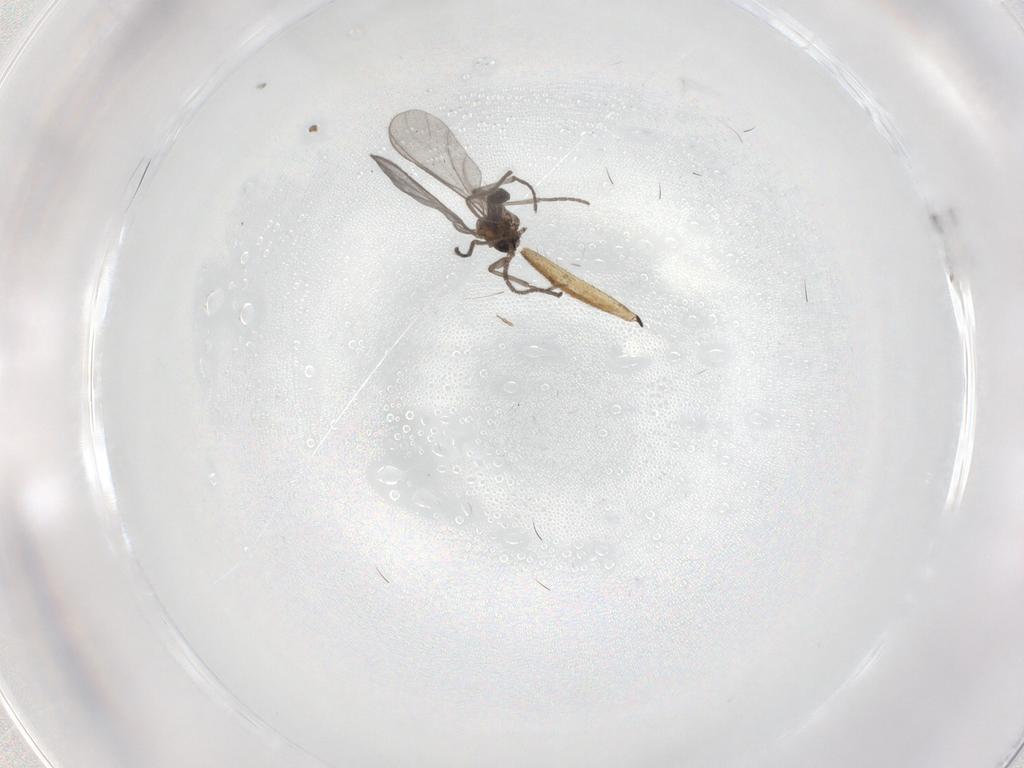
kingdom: Animalia
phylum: Arthropoda
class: Insecta
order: Diptera
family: Sciaridae
